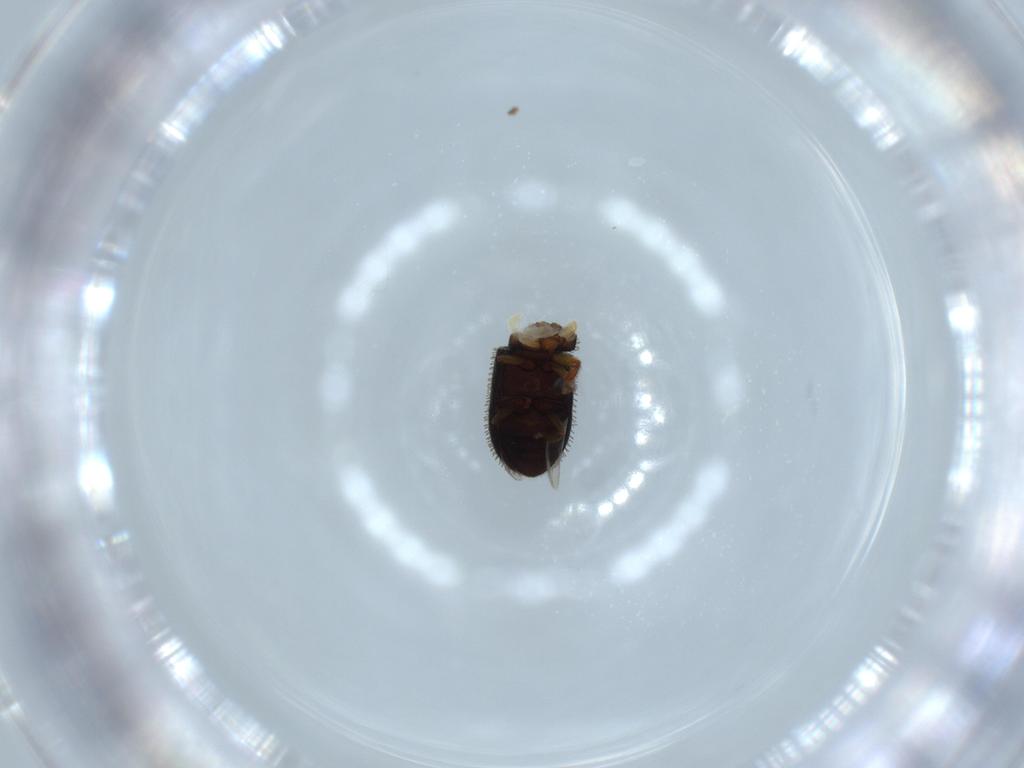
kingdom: Animalia
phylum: Arthropoda
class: Insecta
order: Coleoptera
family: Curculionidae
